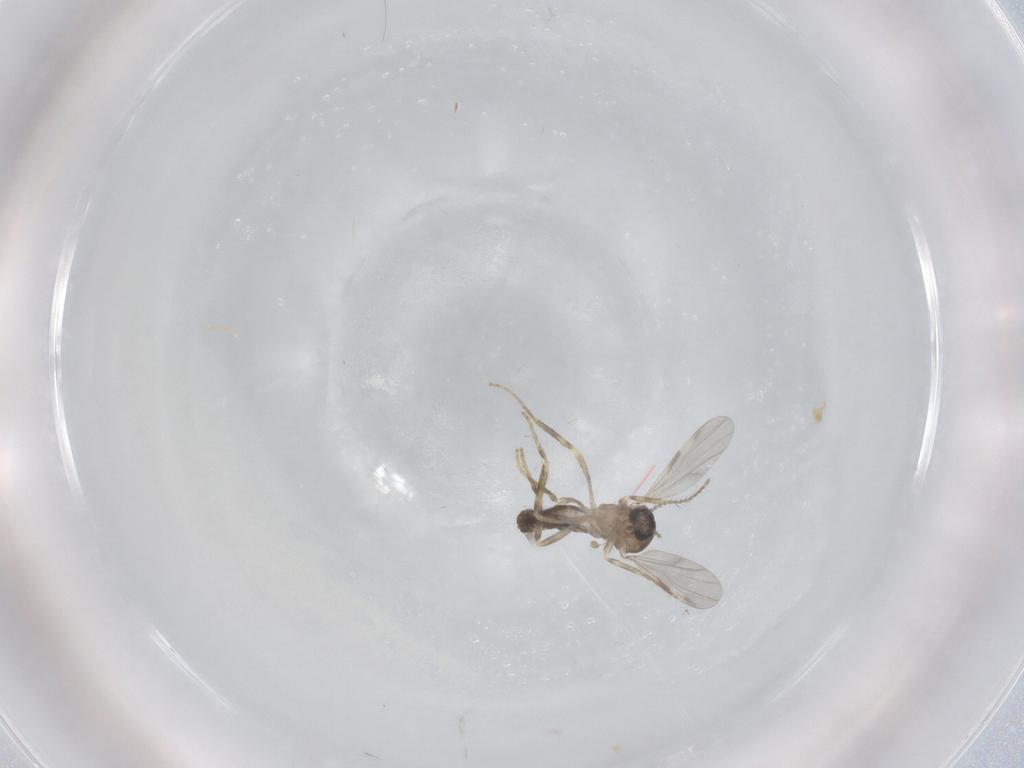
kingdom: Animalia
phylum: Arthropoda
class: Insecta
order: Diptera
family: Ceratopogonidae
